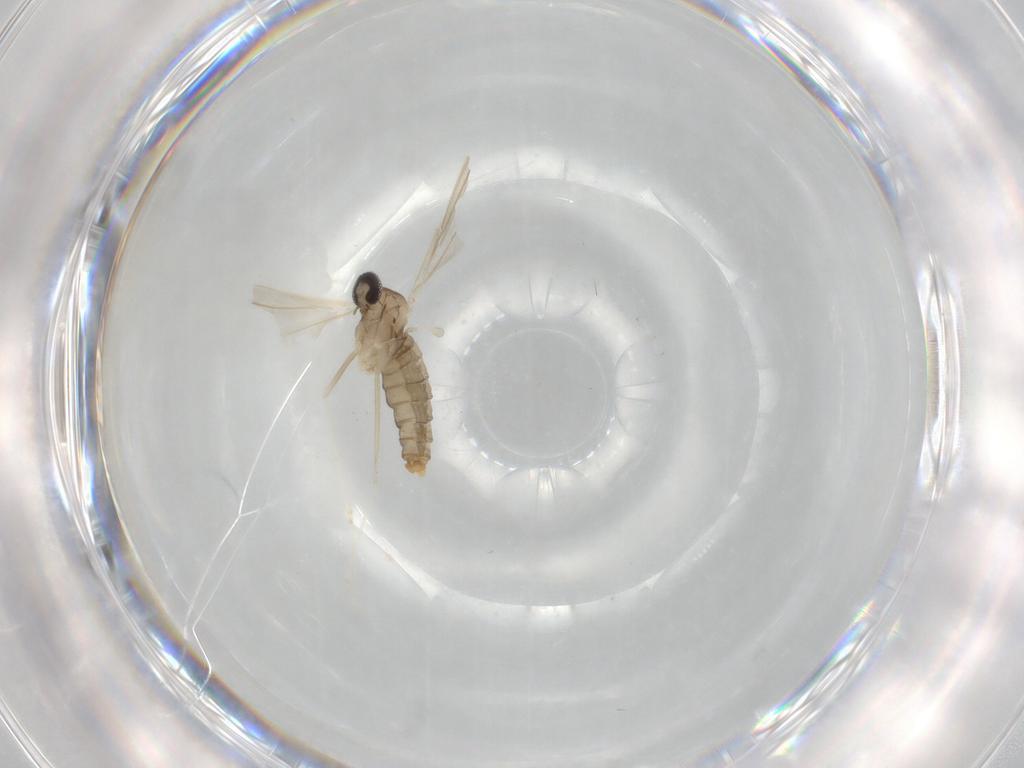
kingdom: Animalia
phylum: Arthropoda
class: Insecta
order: Diptera
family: Cecidomyiidae
